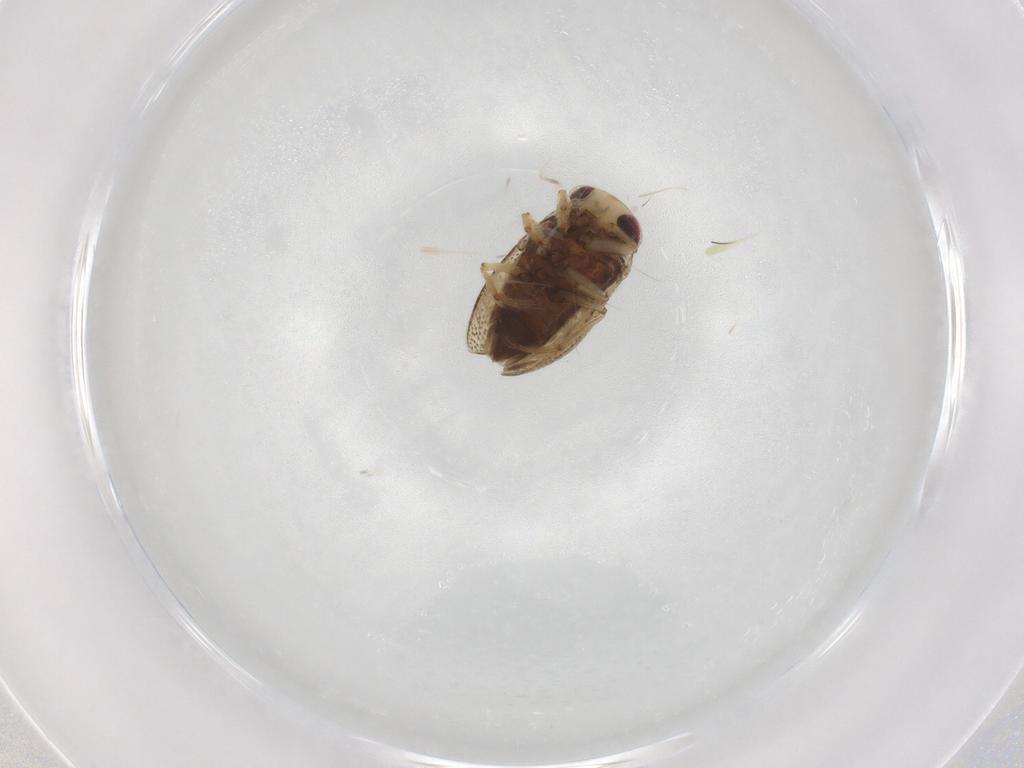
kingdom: Animalia
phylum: Arthropoda
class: Insecta
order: Hemiptera
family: Pleidae
